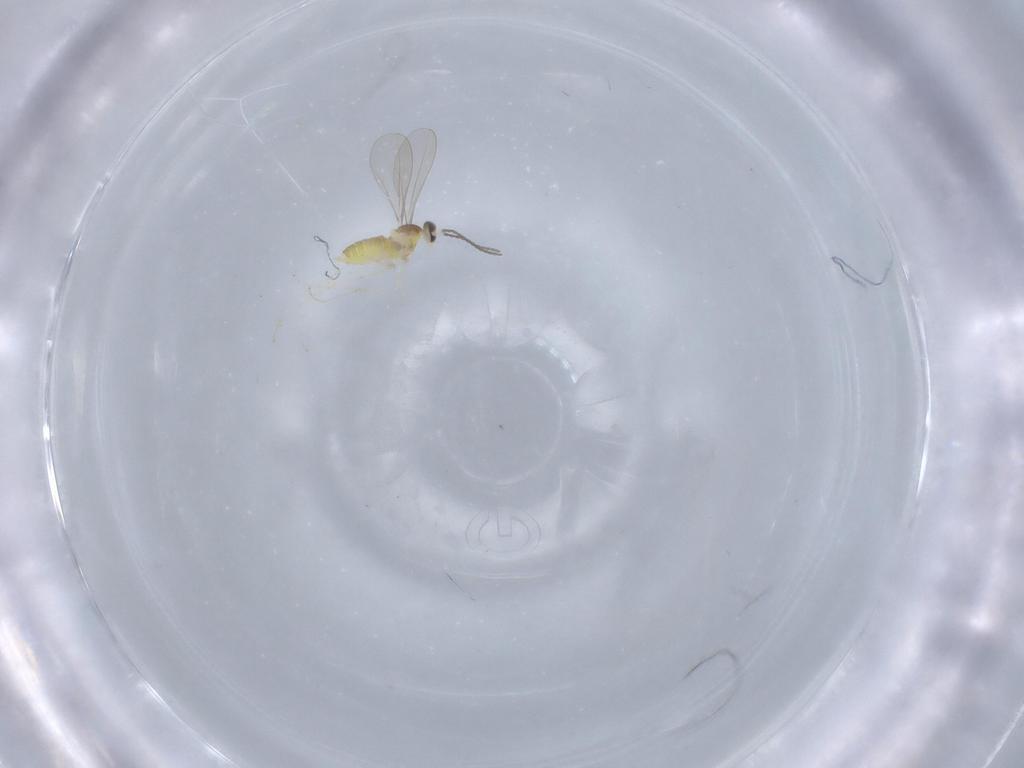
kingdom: Animalia
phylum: Arthropoda
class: Insecta
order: Diptera
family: Cecidomyiidae
